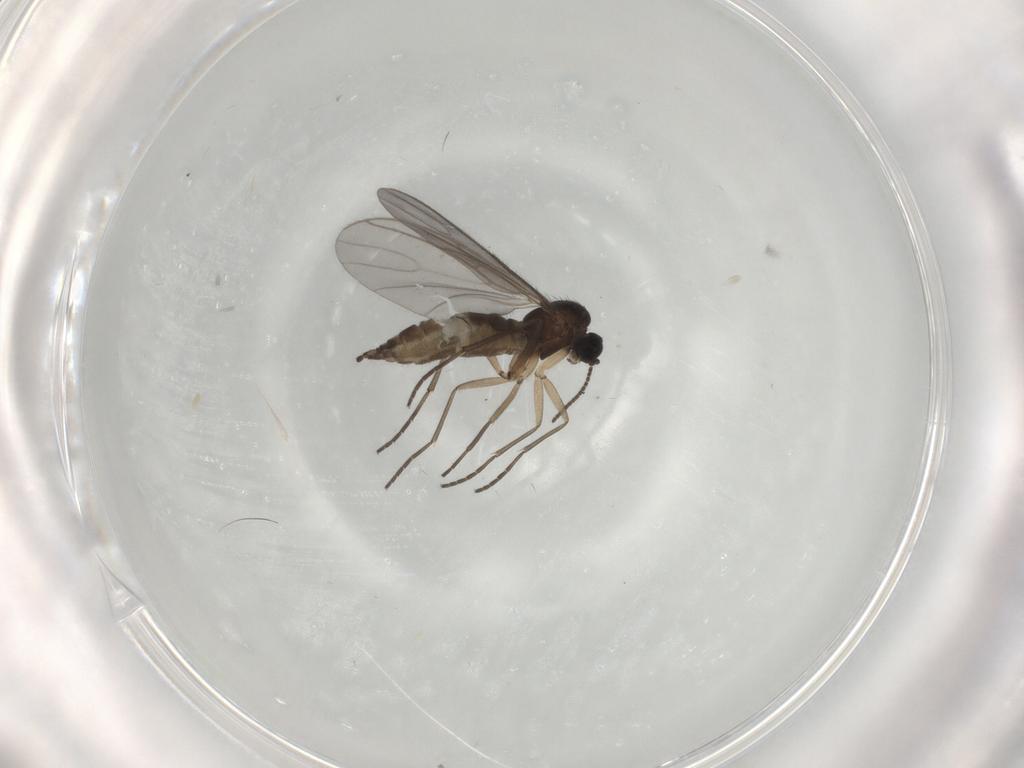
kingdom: Animalia
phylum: Arthropoda
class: Insecta
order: Diptera
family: Sciaridae
